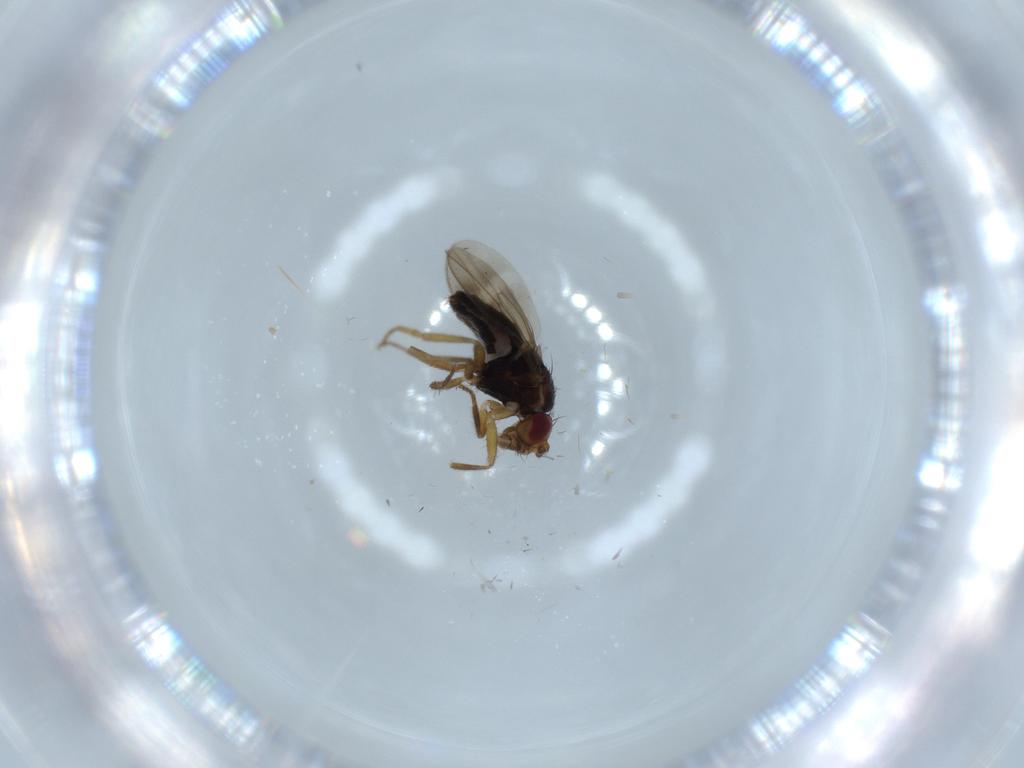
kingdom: Animalia
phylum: Arthropoda
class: Insecta
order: Diptera
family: Sphaeroceridae
